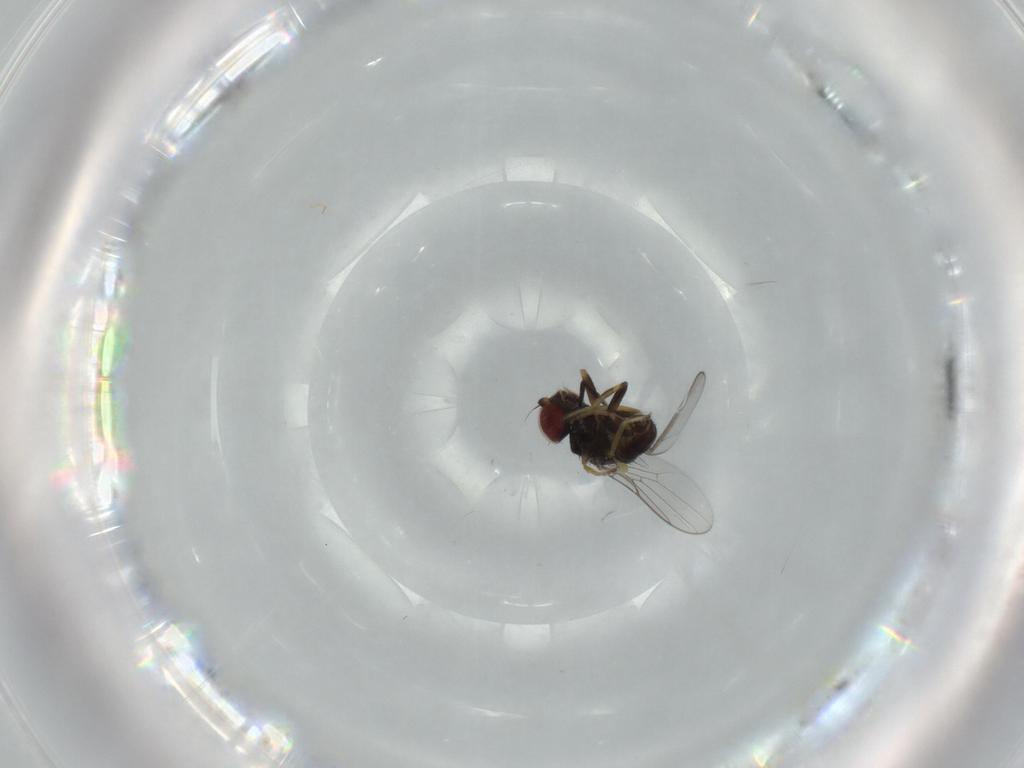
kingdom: Animalia
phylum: Arthropoda
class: Insecta
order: Diptera
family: Chloropidae
